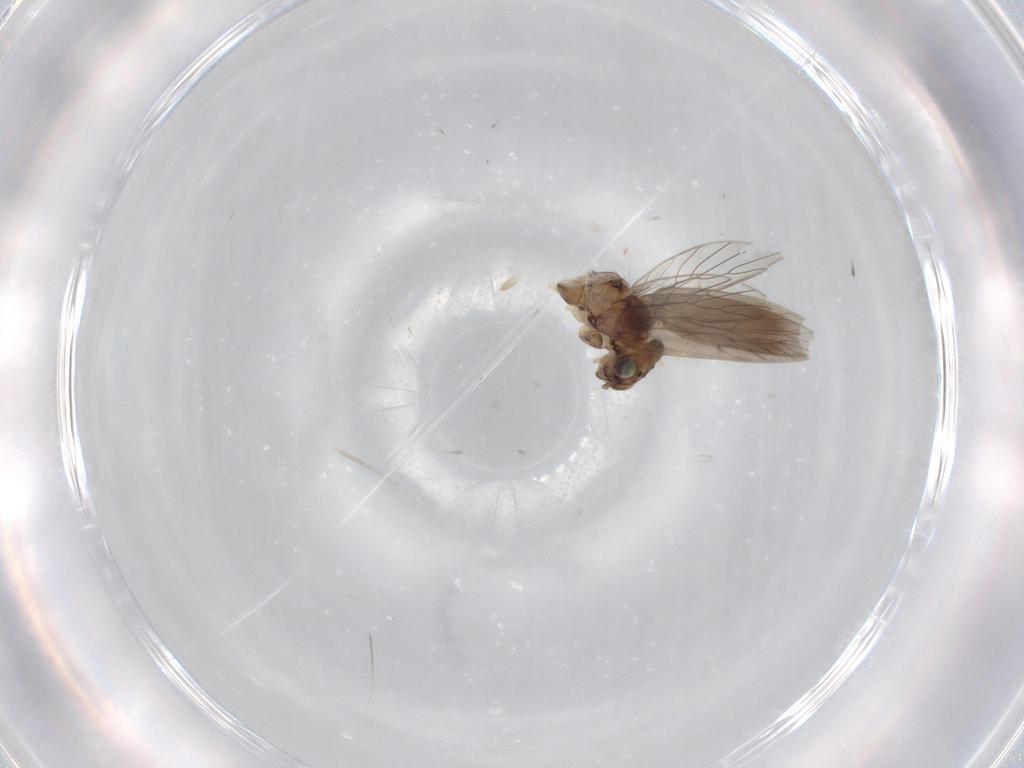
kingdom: Animalia
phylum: Arthropoda
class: Insecta
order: Psocodea
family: Lepidopsocidae
